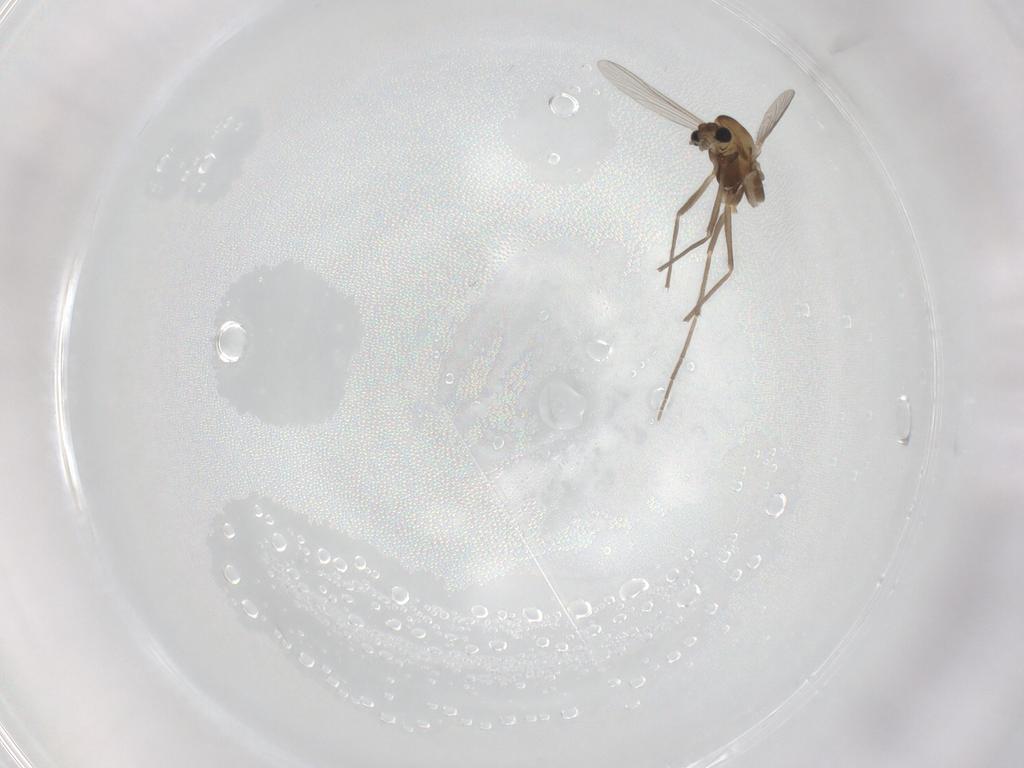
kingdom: Animalia
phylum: Arthropoda
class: Insecta
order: Diptera
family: Chironomidae
